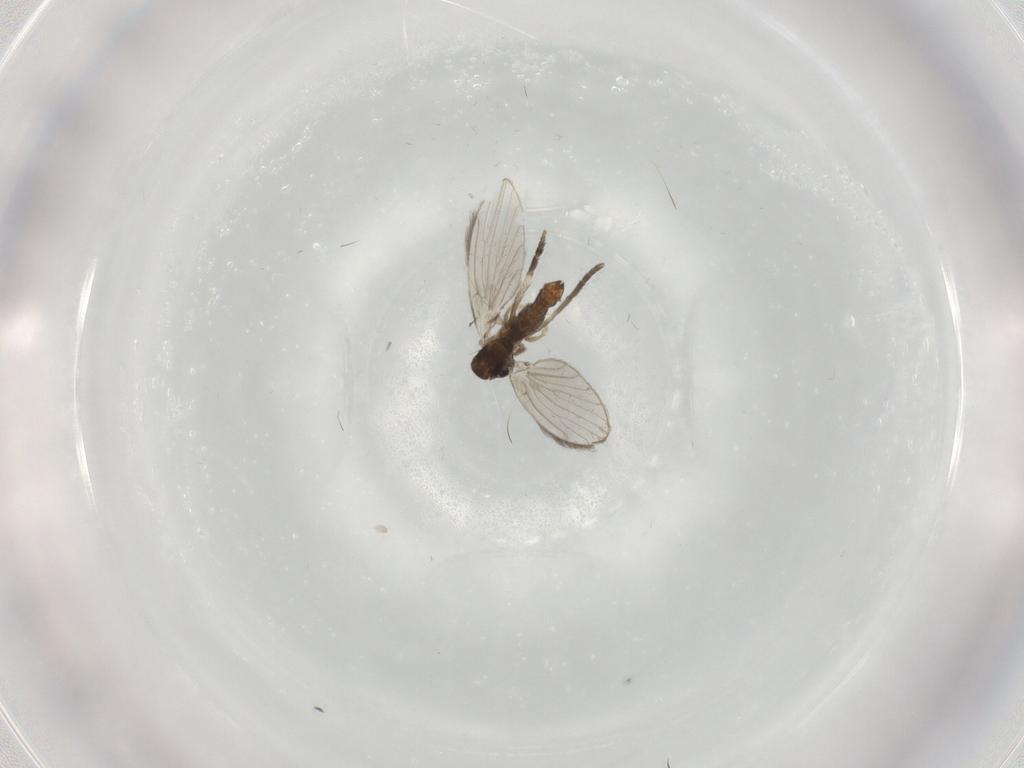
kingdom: Animalia
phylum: Arthropoda
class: Insecta
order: Diptera
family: Psychodidae
